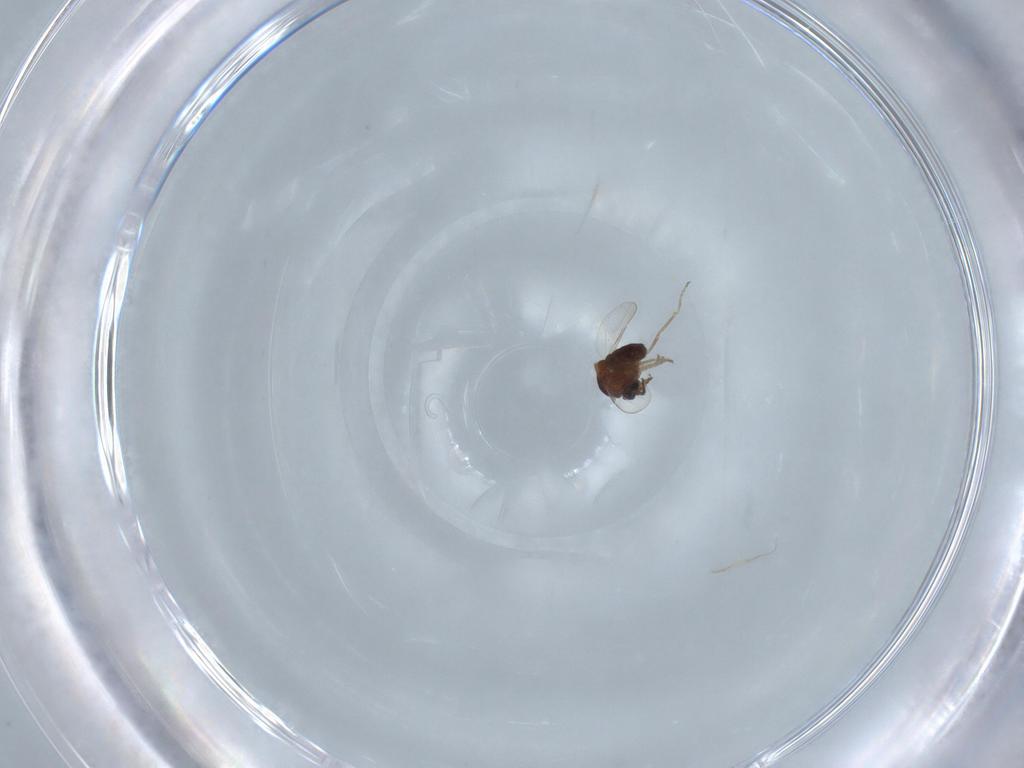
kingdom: Animalia
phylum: Arthropoda
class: Insecta
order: Diptera
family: Ceratopogonidae
